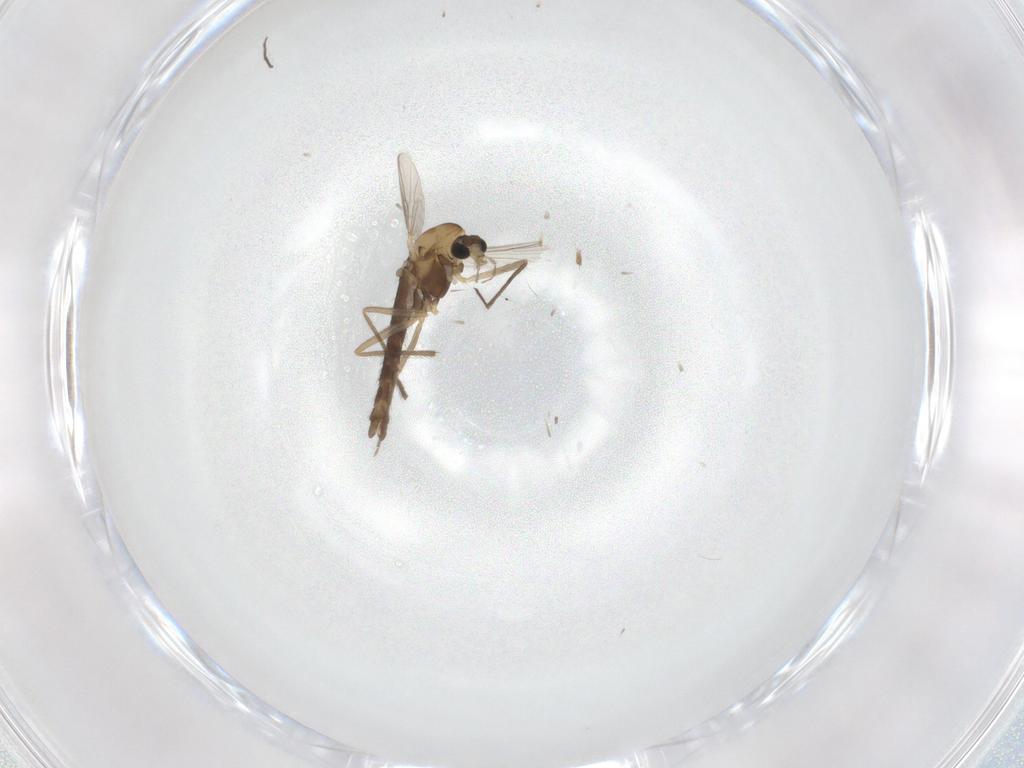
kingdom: Animalia
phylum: Arthropoda
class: Insecta
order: Diptera
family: Chironomidae
